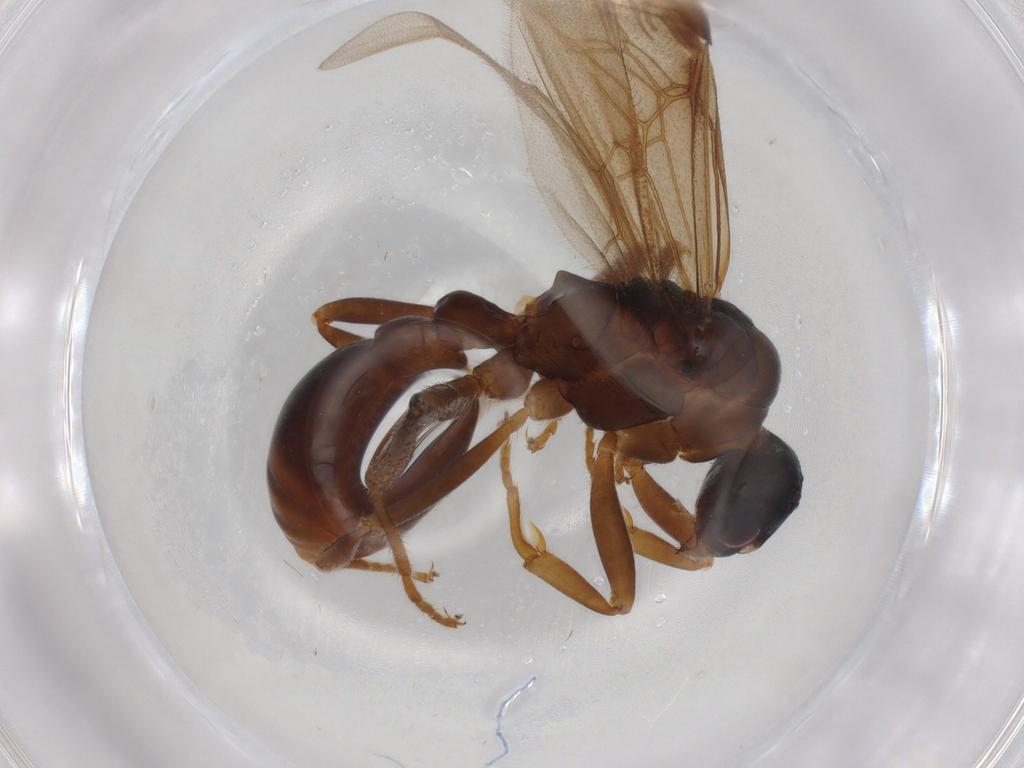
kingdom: Animalia
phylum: Arthropoda
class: Insecta
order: Hymenoptera
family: Formicidae
